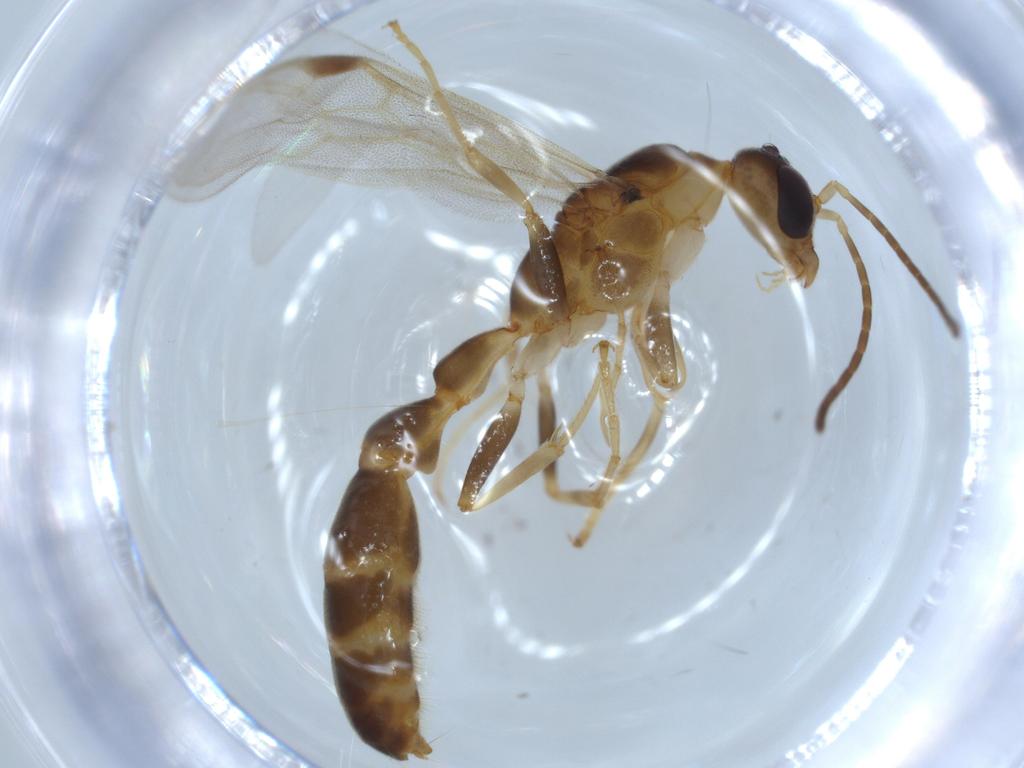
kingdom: Animalia
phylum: Arthropoda
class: Insecta
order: Hymenoptera
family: Formicidae
